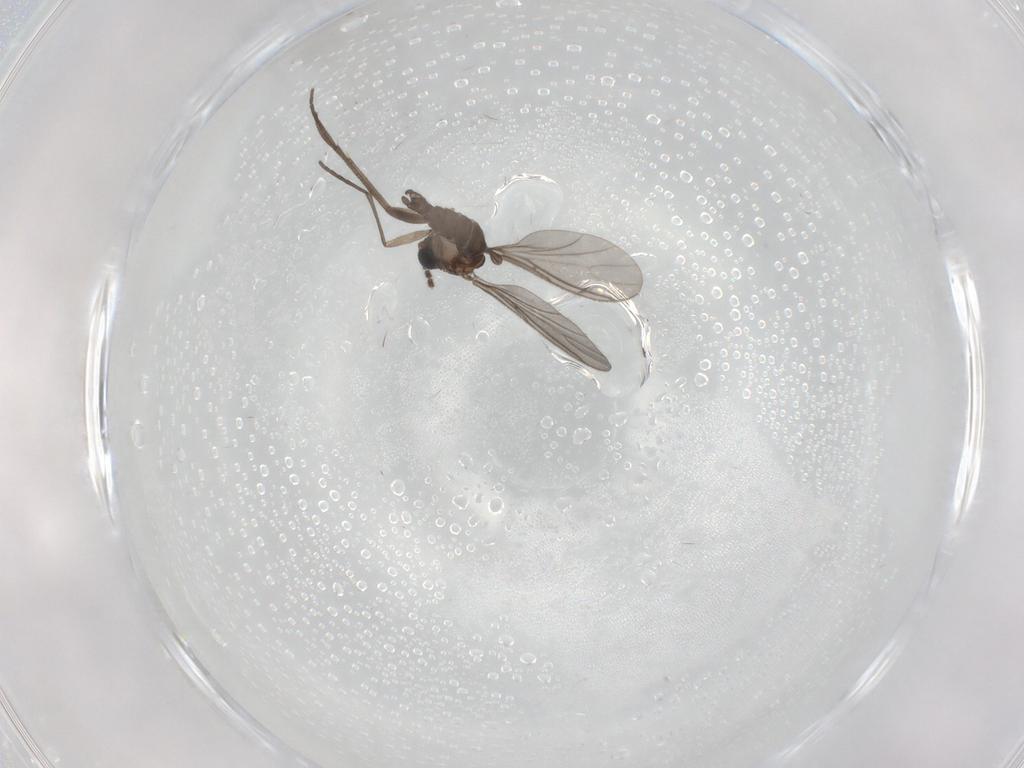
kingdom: Animalia
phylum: Arthropoda
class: Insecta
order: Diptera
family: Sciaridae
